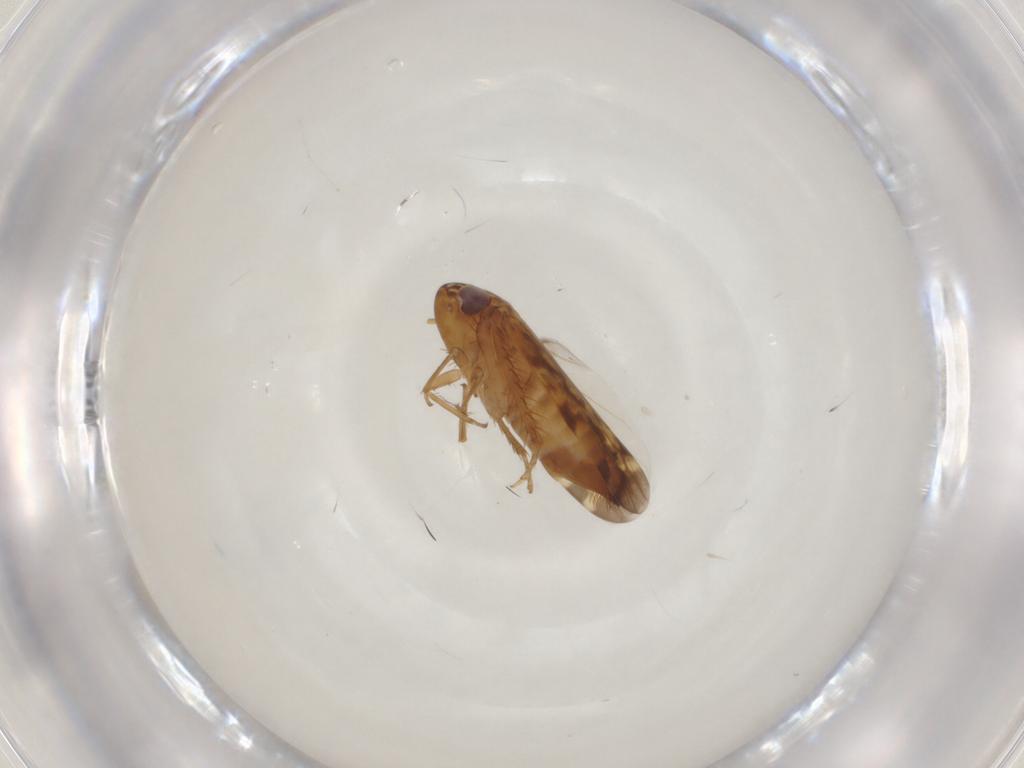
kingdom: Animalia
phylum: Arthropoda
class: Insecta
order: Hemiptera
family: Cicadellidae
